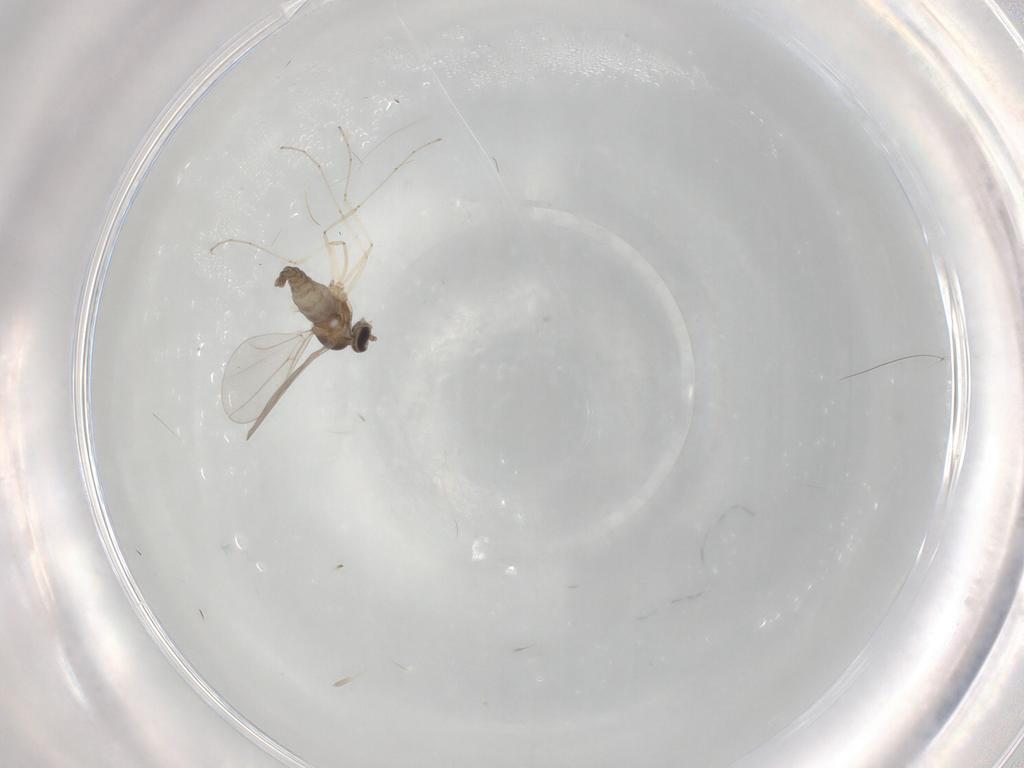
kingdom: Animalia
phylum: Arthropoda
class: Insecta
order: Diptera
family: Cecidomyiidae
